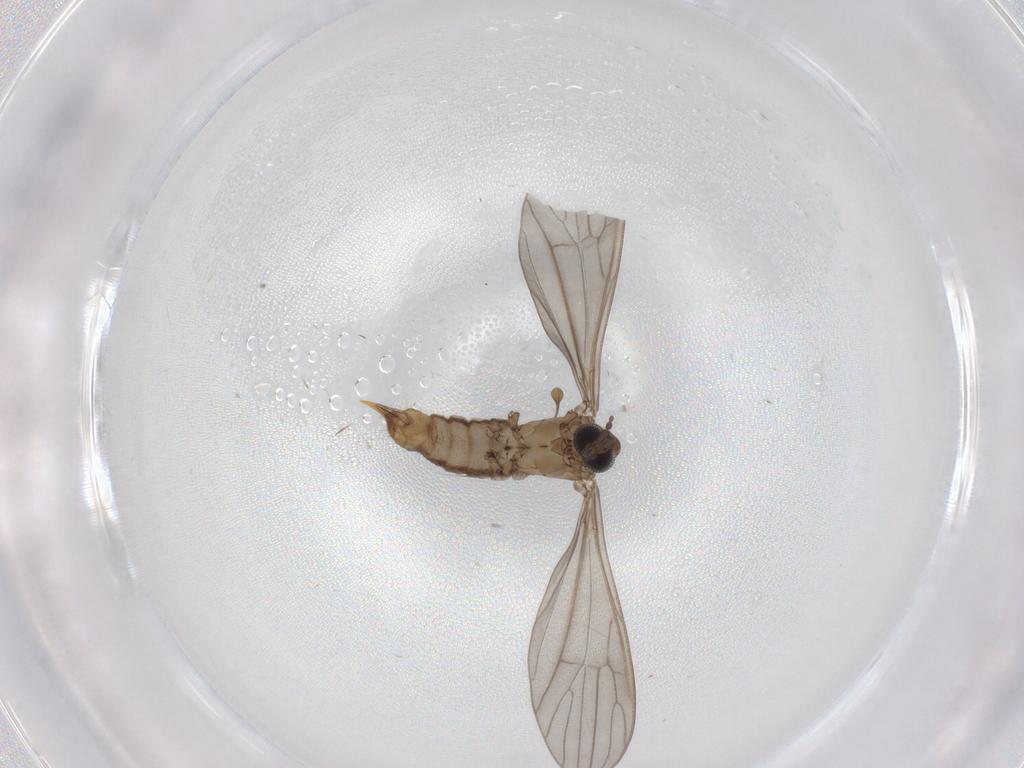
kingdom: Animalia
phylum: Arthropoda
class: Insecta
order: Diptera
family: Limoniidae
